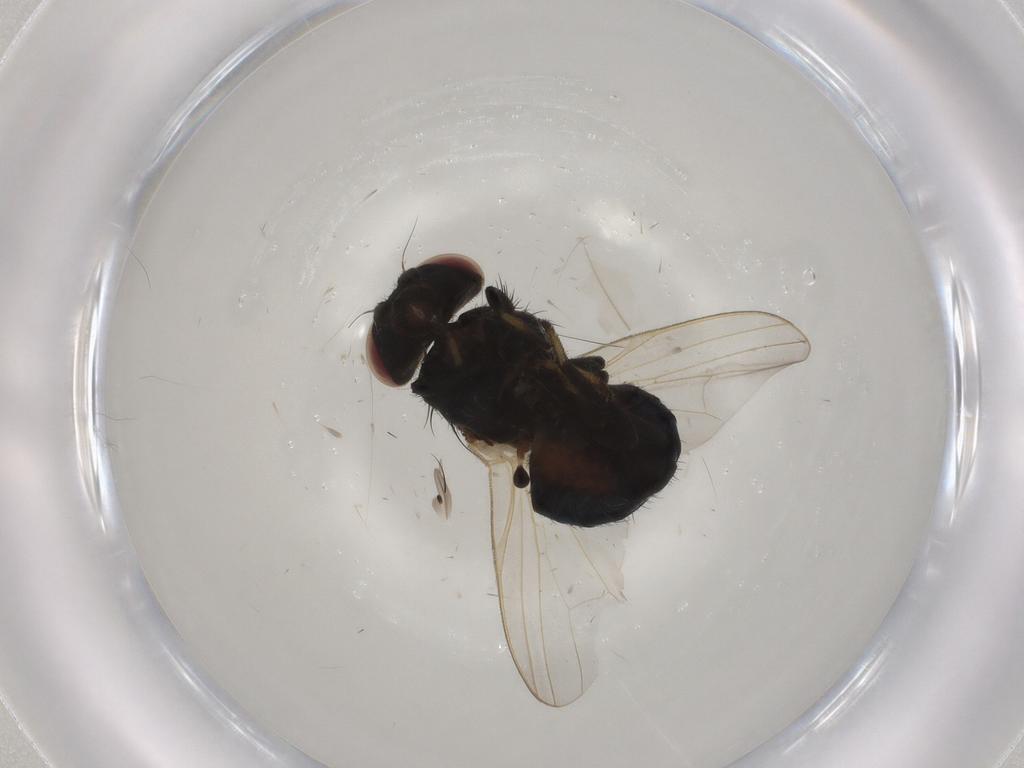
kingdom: Animalia
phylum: Arthropoda
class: Insecta
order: Diptera
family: Lonchaeidae
